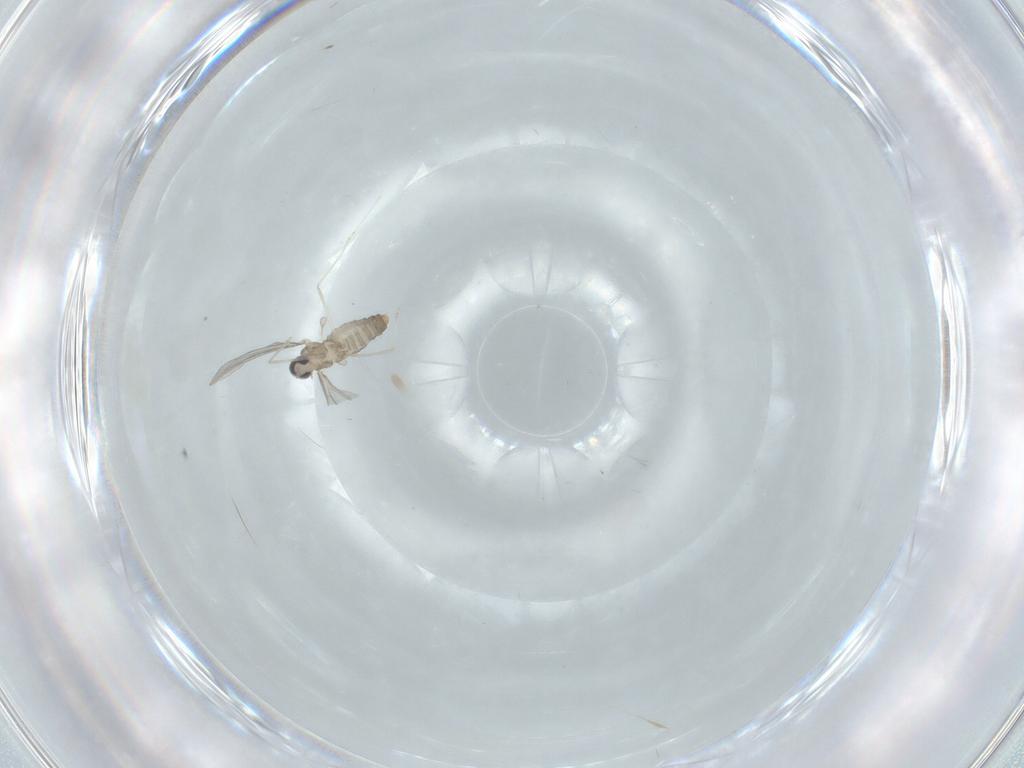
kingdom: Animalia
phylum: Arthropoda
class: Insecta
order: Diptera
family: Cecidomyiidae
